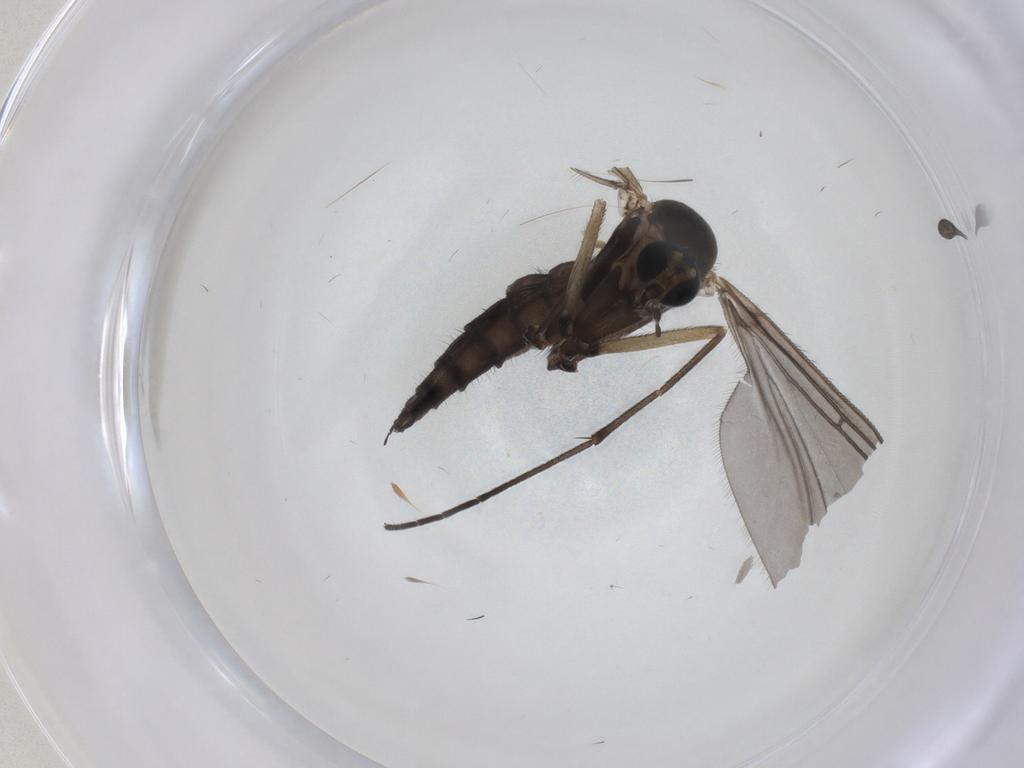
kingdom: Animalia
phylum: Arthropoda
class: Insecta
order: Diptera
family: Sciaridae
